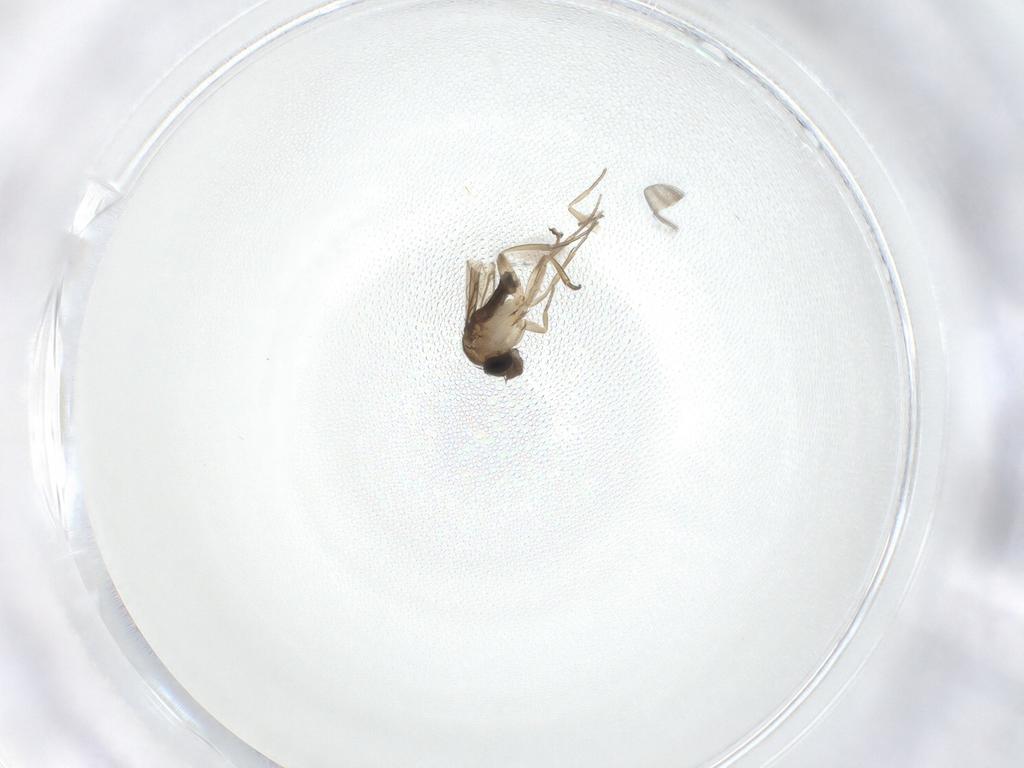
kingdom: Animalia
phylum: Arthropoda
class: Insecta
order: Diptera
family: Phoridae
